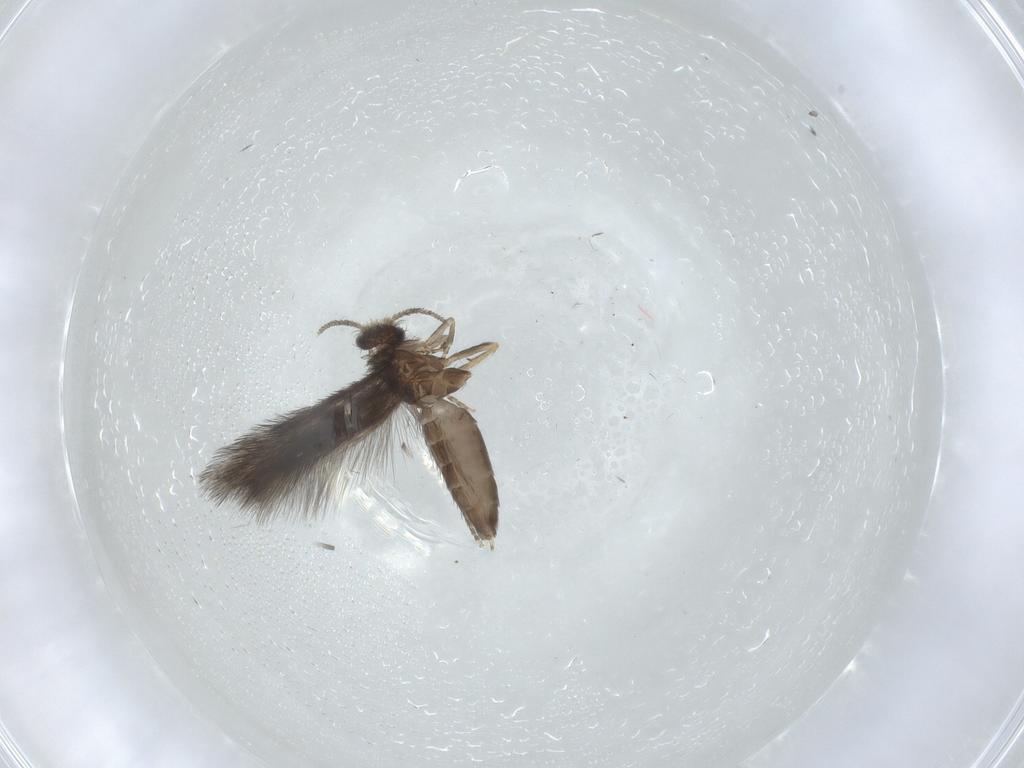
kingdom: Animalia
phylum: Arthropoda
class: Insecta
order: Trichoptera
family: Hydroptilidae
